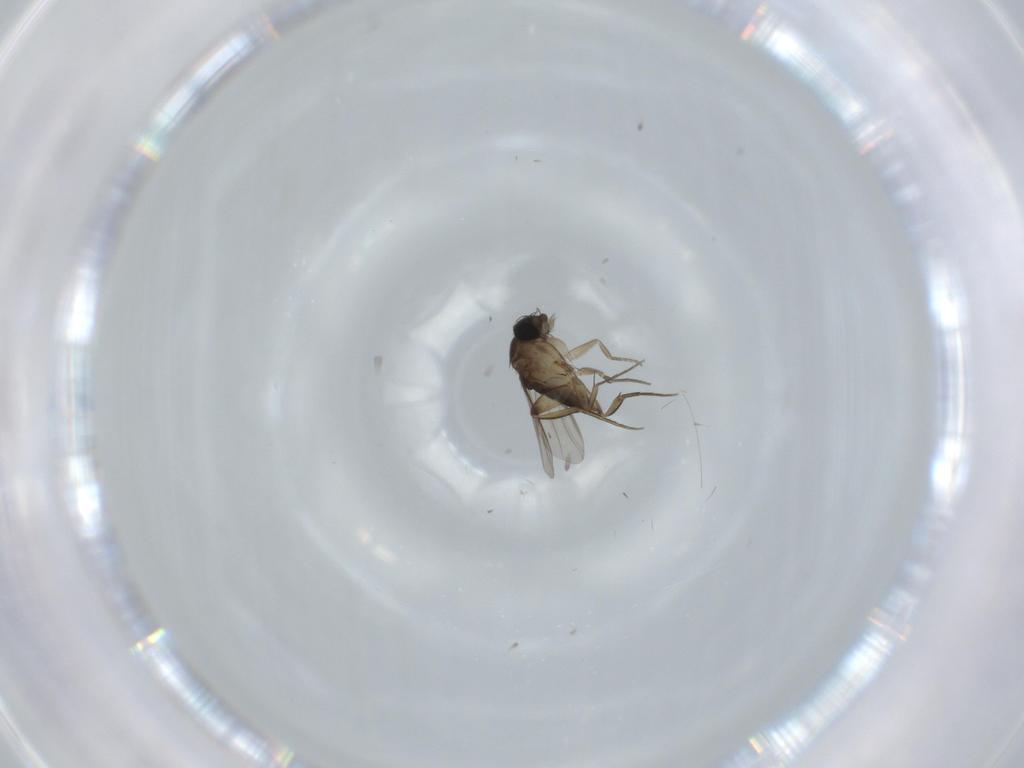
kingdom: Animalia
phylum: Arthropoda
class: Insecta
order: Diptera
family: Phoridae
